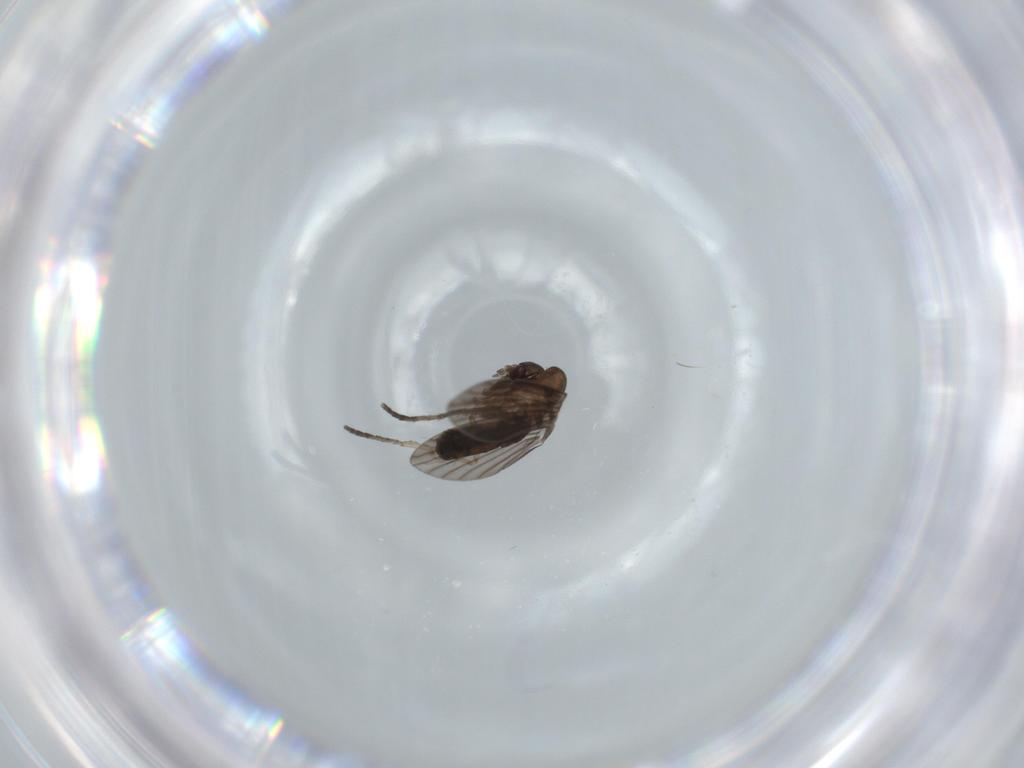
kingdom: Animalia
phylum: Arthropoda
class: Insecta
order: Diptera
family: Psychodidae
